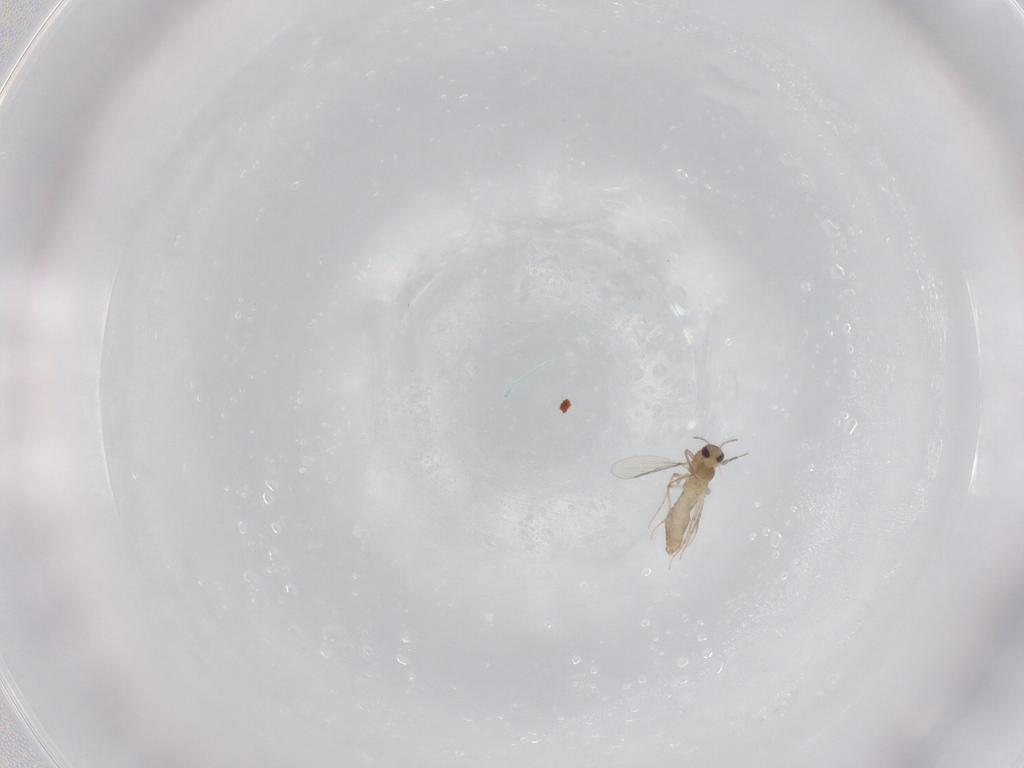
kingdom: Animalia
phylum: Arthropoda
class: Insecta
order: Diptera
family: Chironomidae
